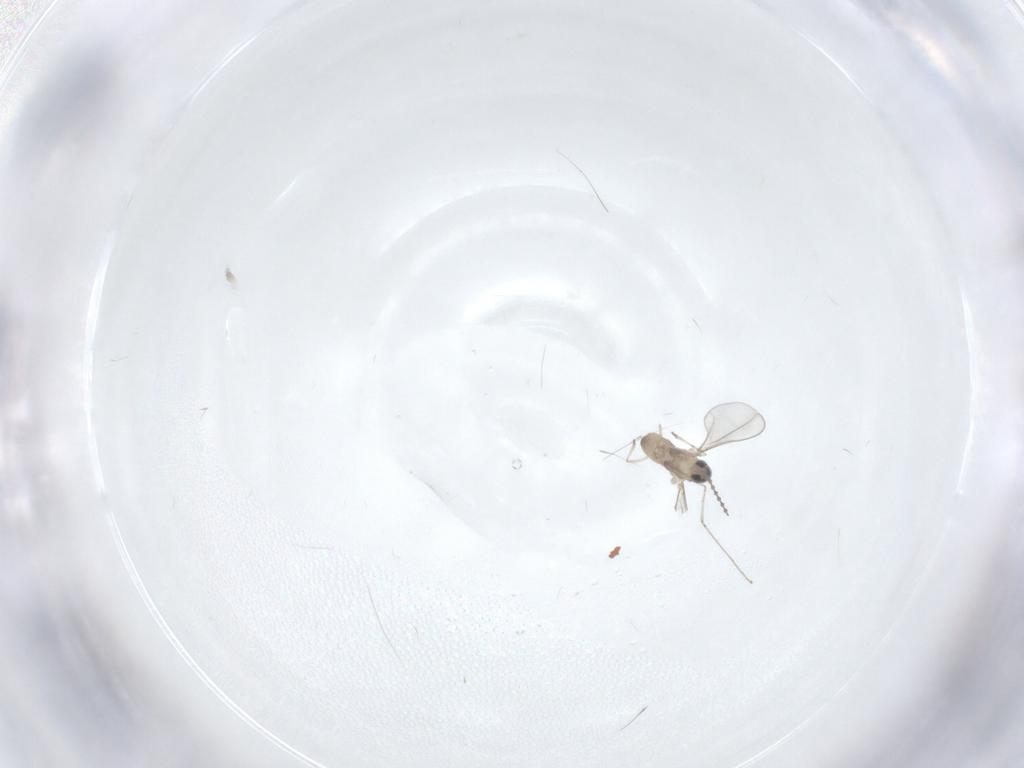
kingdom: Animalia
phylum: Arthropoda
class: Insecta
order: Diptera
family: Cecidomyiidae
